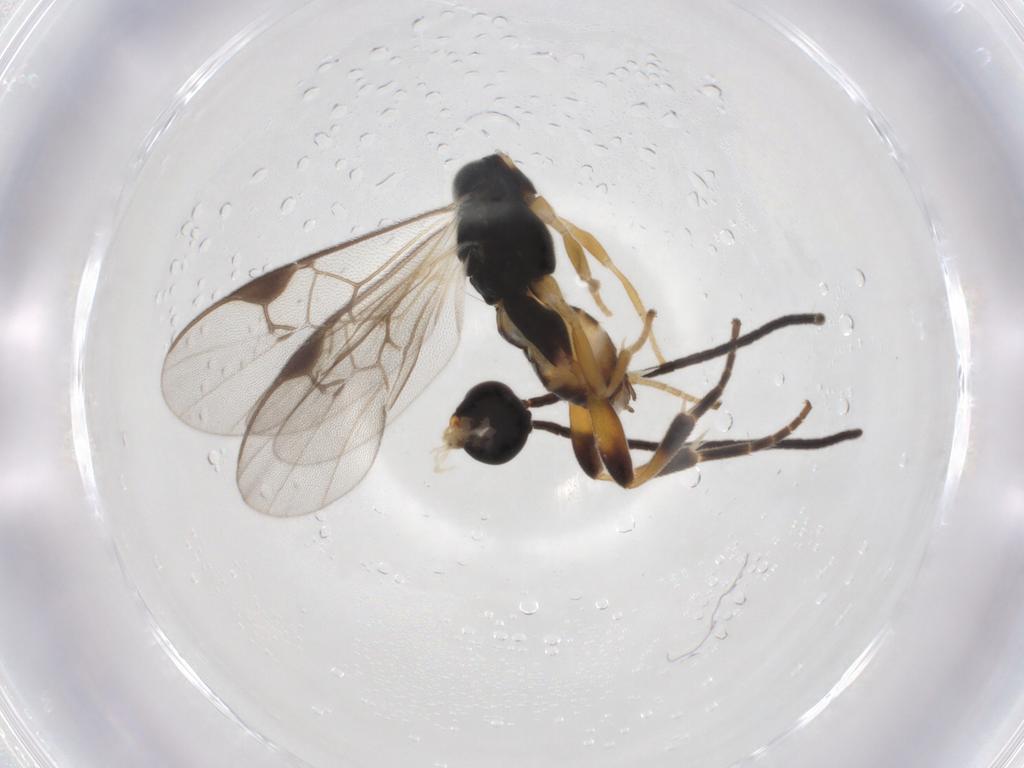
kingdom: Animalia
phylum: Arthropoda
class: Insecta
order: Hymenoptera
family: Braconidae
